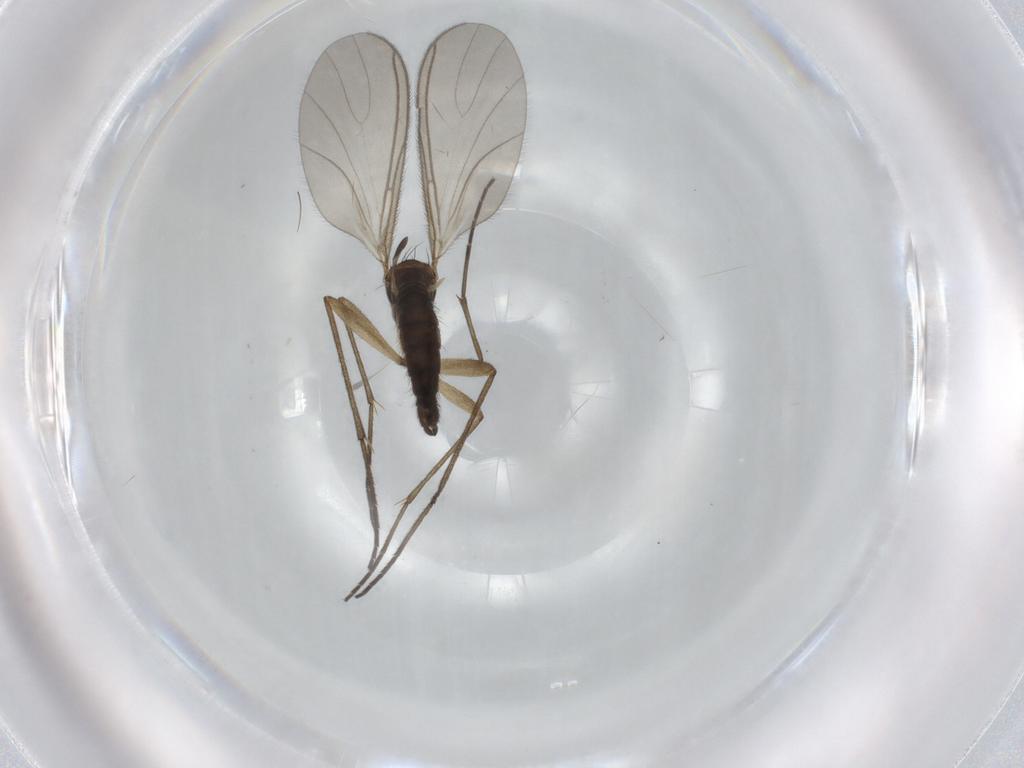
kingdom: Animalia
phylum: Arthropoda
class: Insecta
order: Diptera
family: Sciaridae
